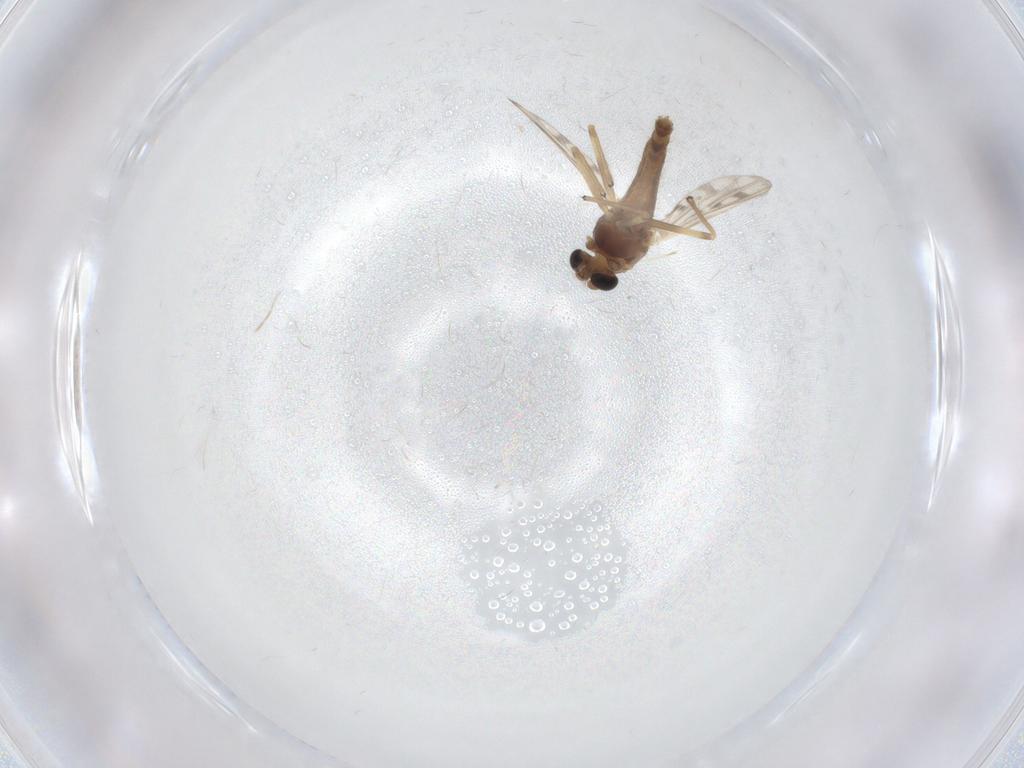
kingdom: Animalia
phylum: Arthropoda
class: Insecta
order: Diptera
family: Chironomidae
